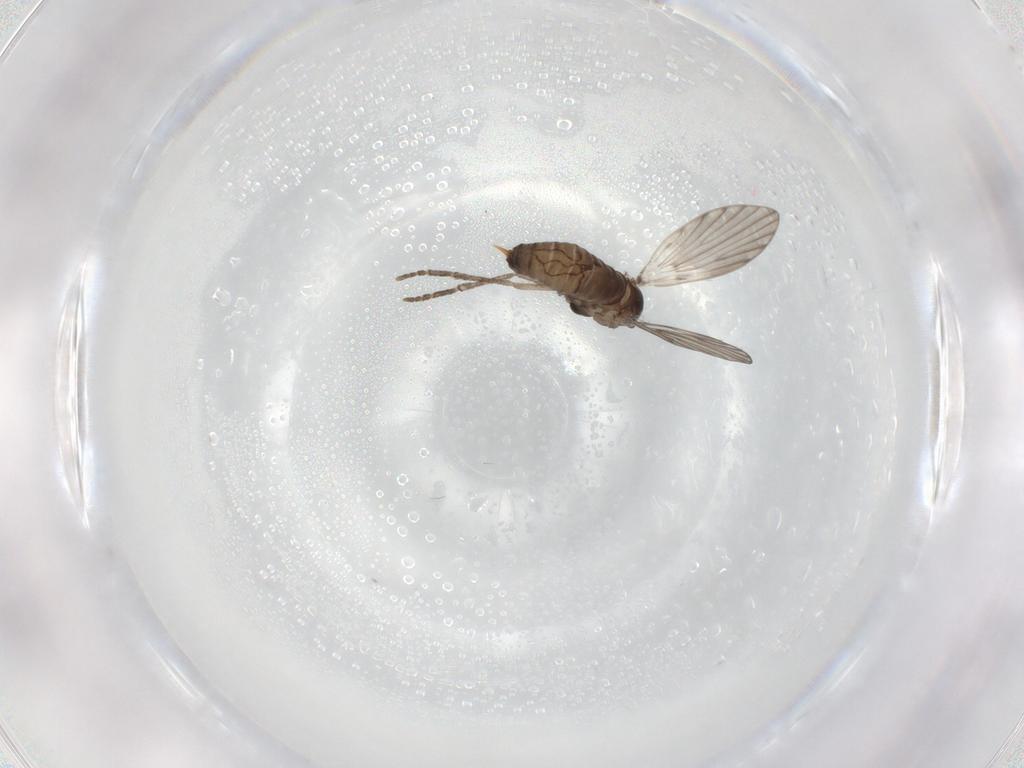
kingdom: Animalia
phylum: Arthropoda
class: Insecta
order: Diptera
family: Psychodidae
